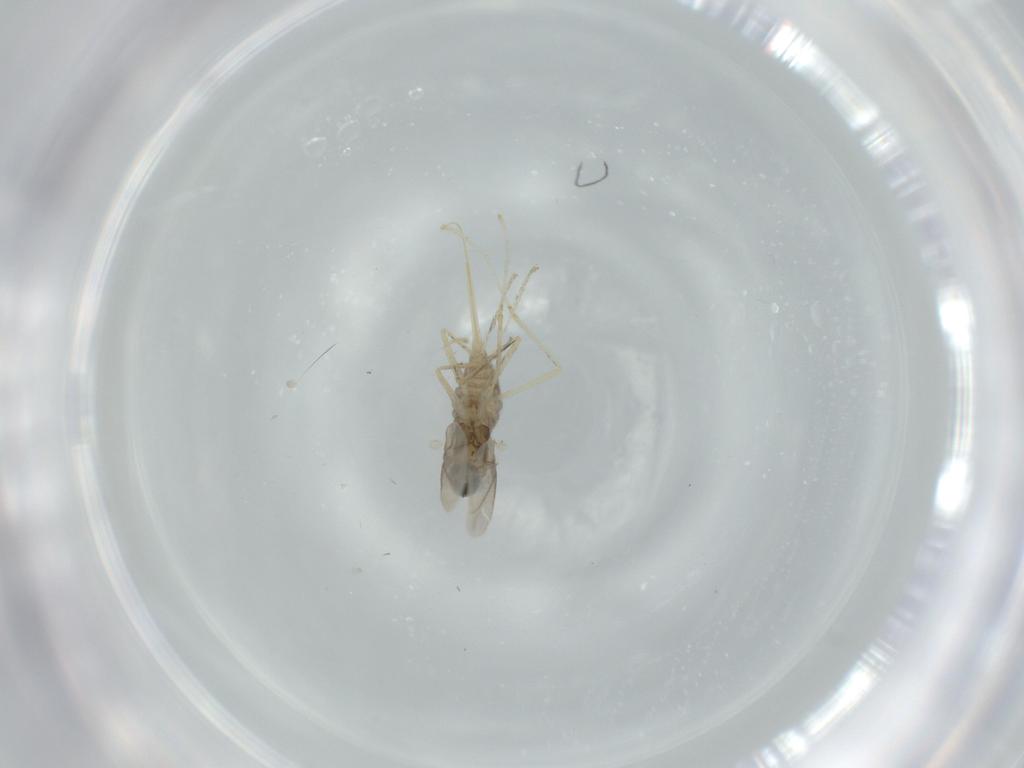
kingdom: Animalia
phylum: Arthropoda
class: Insecta
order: Diptera
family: Cecidomyiidae
